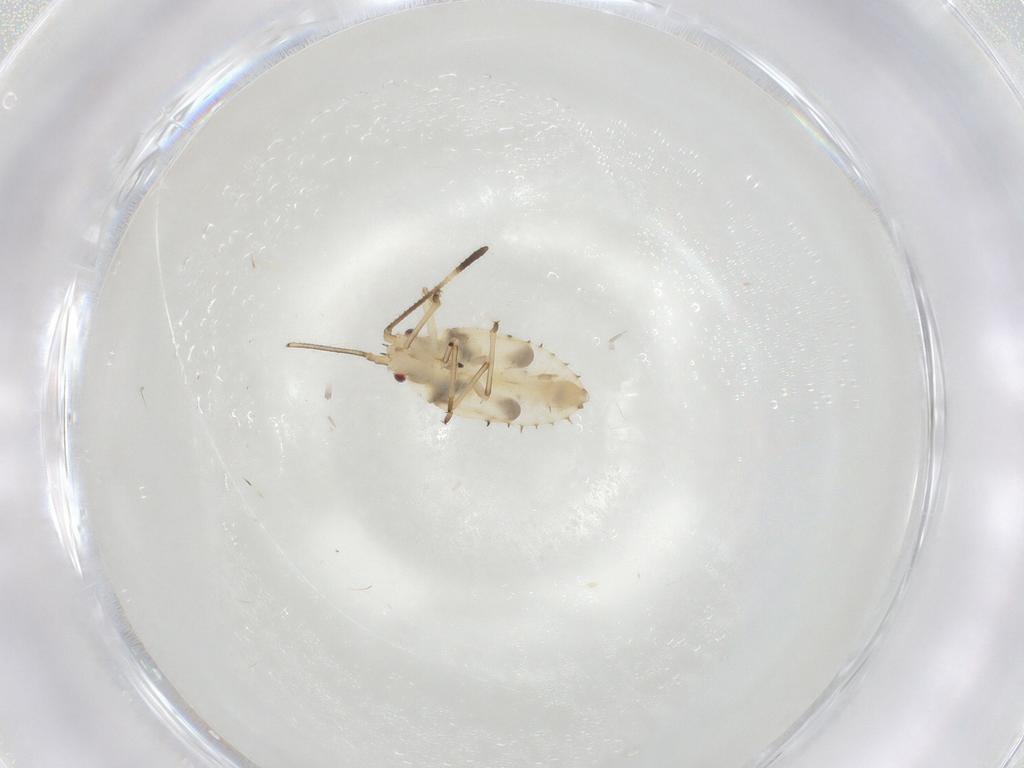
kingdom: Animalia
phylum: Arthropoda
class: Insecta
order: Hemiptera
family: Tingidae
